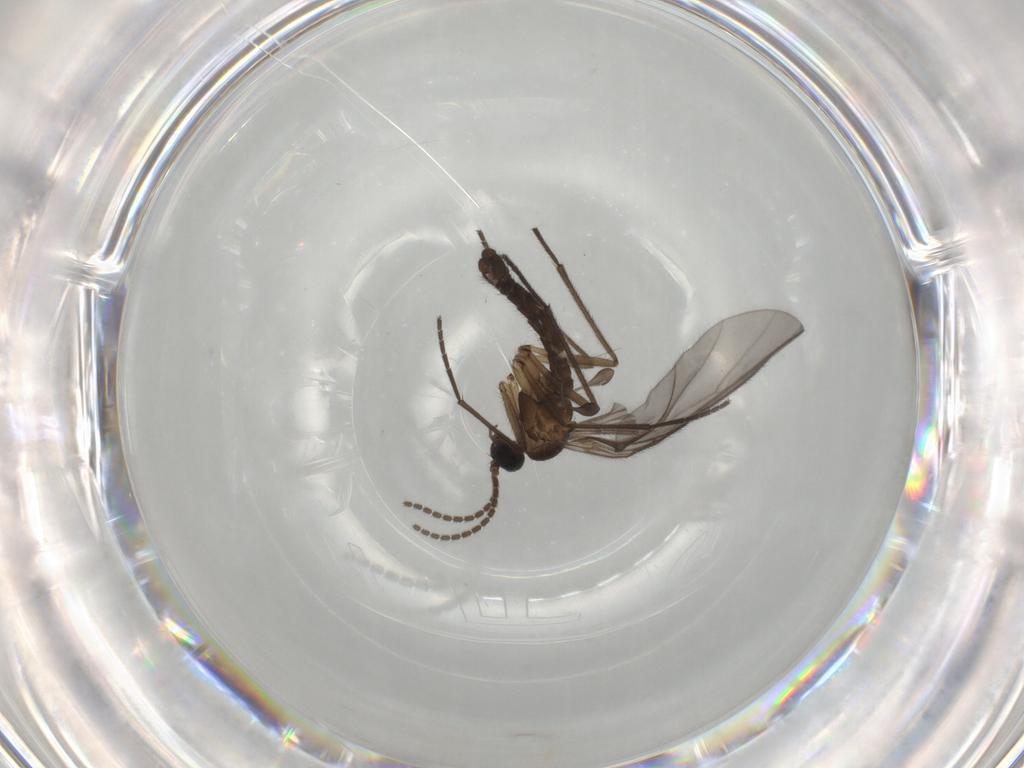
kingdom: Animalia
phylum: Arthropoda
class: Insecta
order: Diptera
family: Sciaridae
